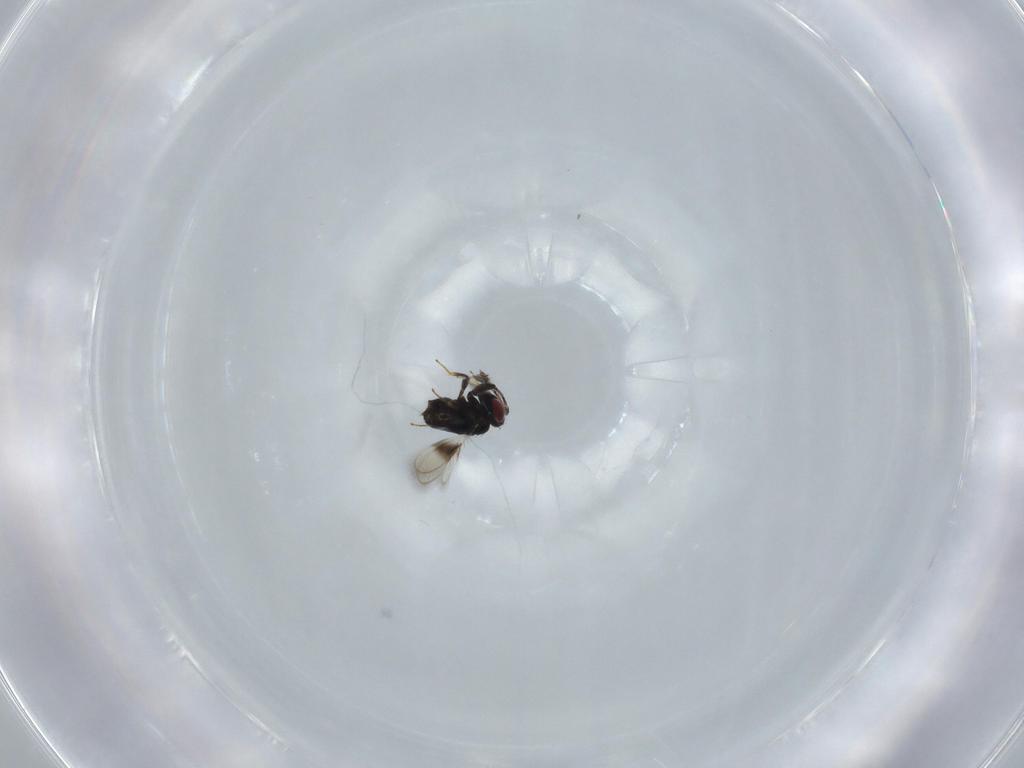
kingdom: Animalia
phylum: Arthropoda
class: Insecta
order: Hymenoptera
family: Azotidae
